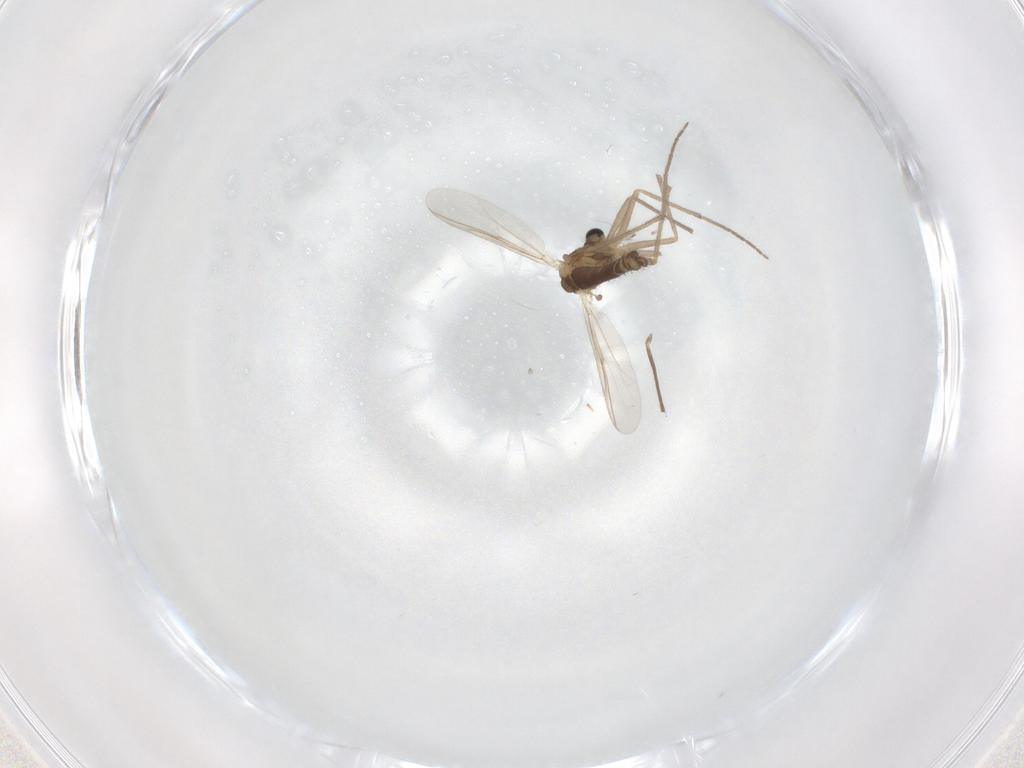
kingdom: Animalia
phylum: Arthropoda
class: Insecta
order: Diptera
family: Chironomidae
